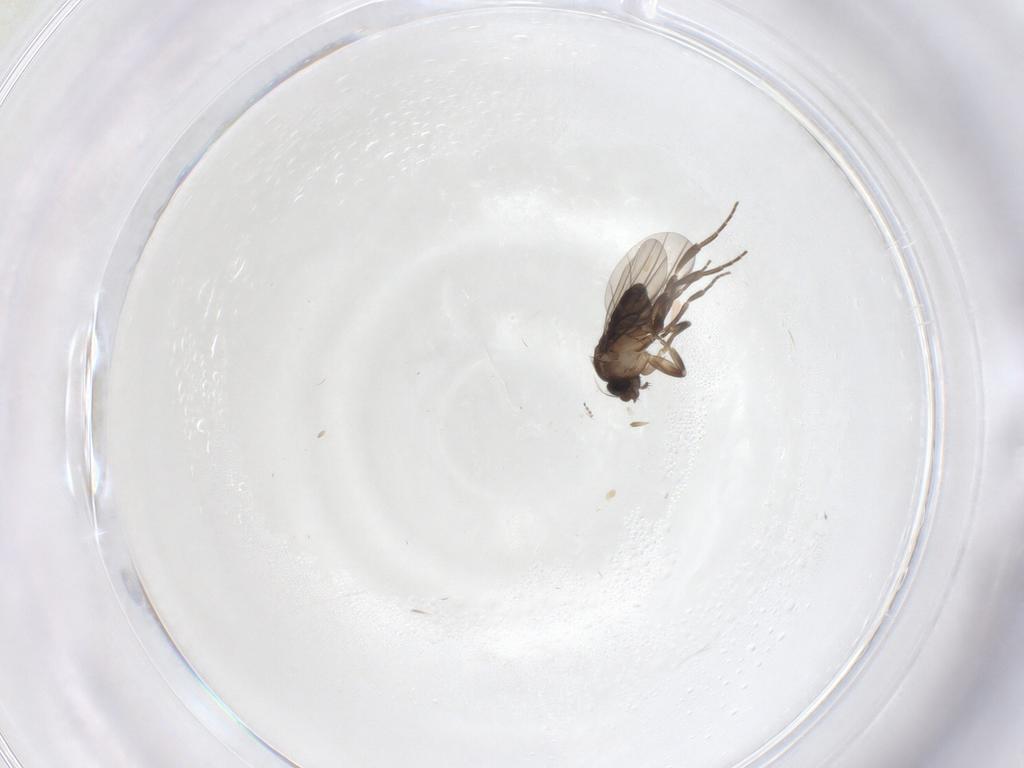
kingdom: Animalia
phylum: Arthropoda
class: Insecta
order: Diptera
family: Phoridae
